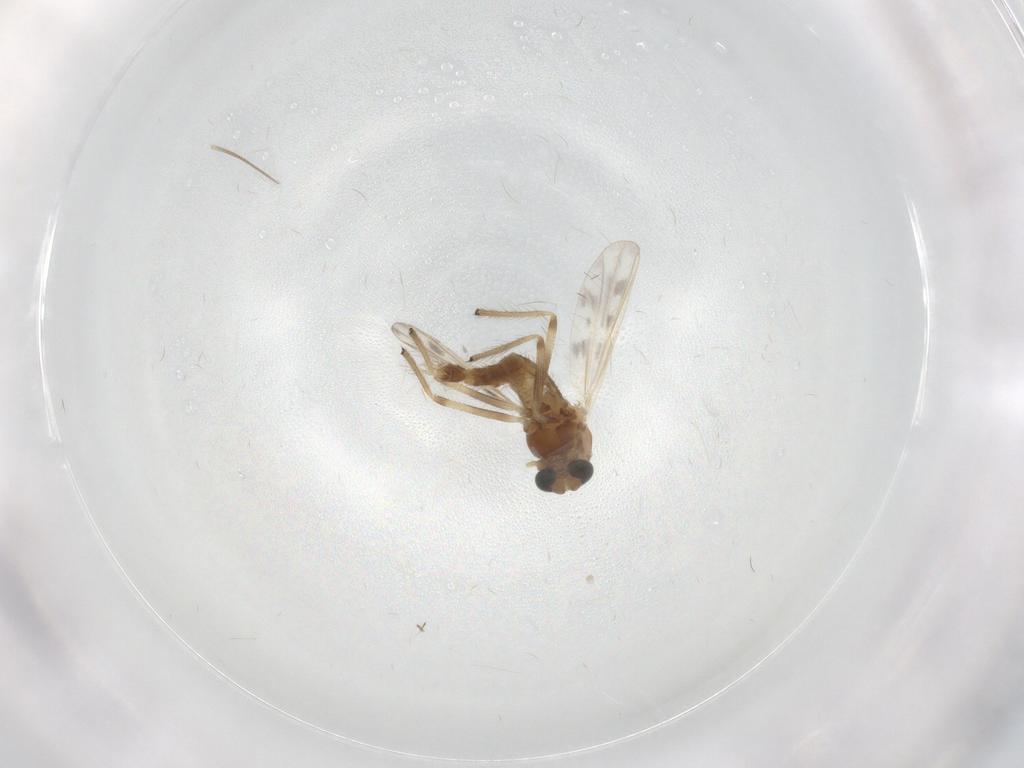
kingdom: Animalia
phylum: Arthropoda
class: Insecta
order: Diptera
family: Chironomidae
